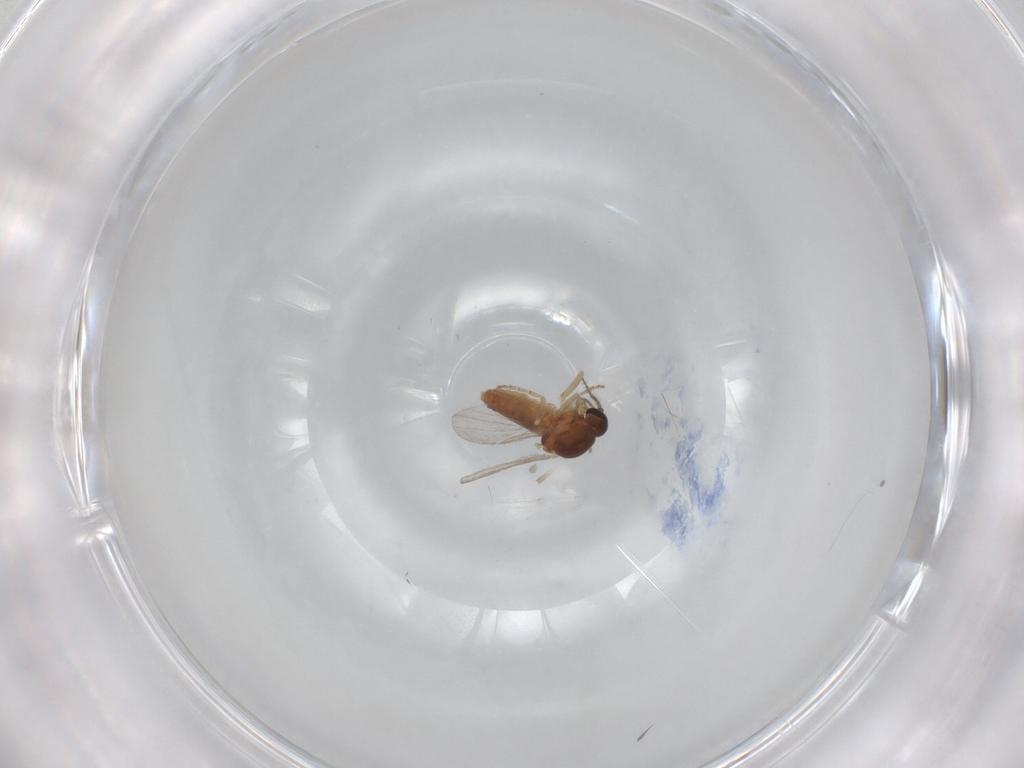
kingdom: Animalia
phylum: Arthropoda
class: Insecta
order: Diptera
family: Ceratopogonidae
